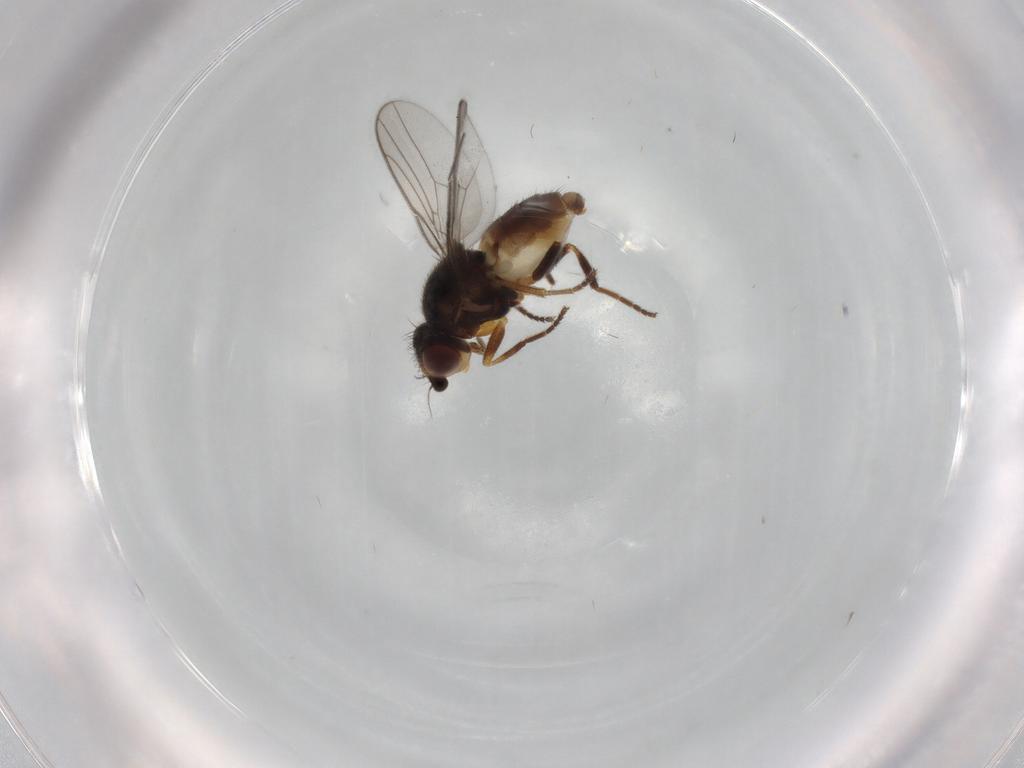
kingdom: Animalia
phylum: Arthropoda
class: Insecta
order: Diptera
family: Chloropidae
